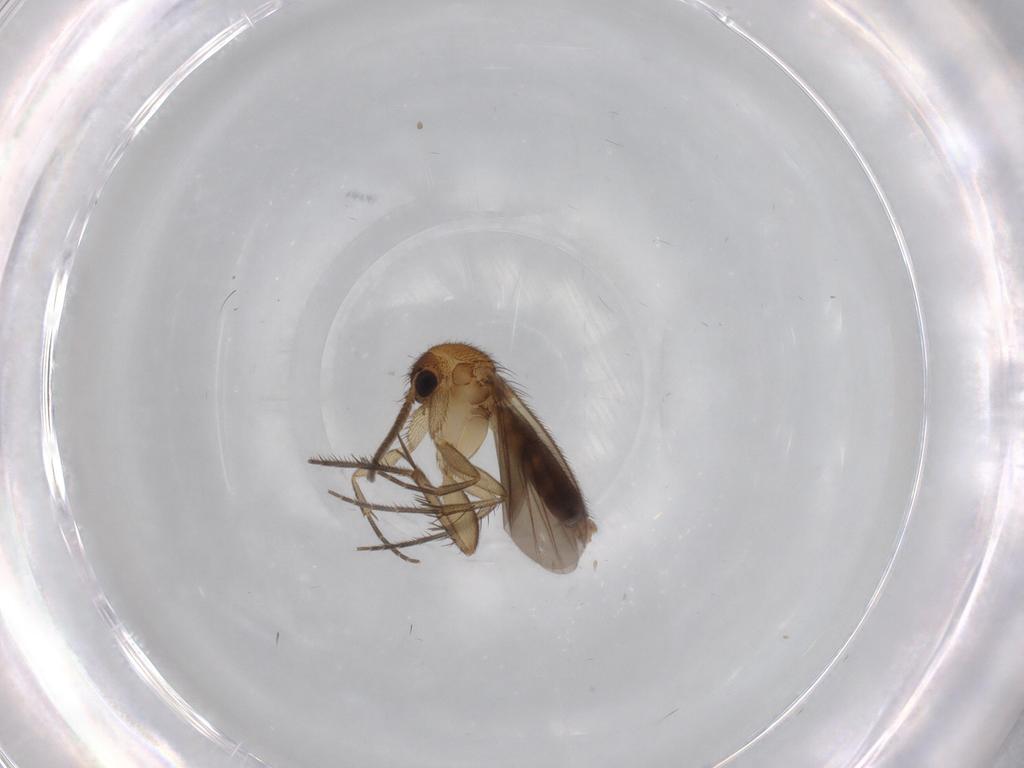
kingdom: Animalia
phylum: Arthropoda
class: Insecta
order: Diptera
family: Mycetophilidae
